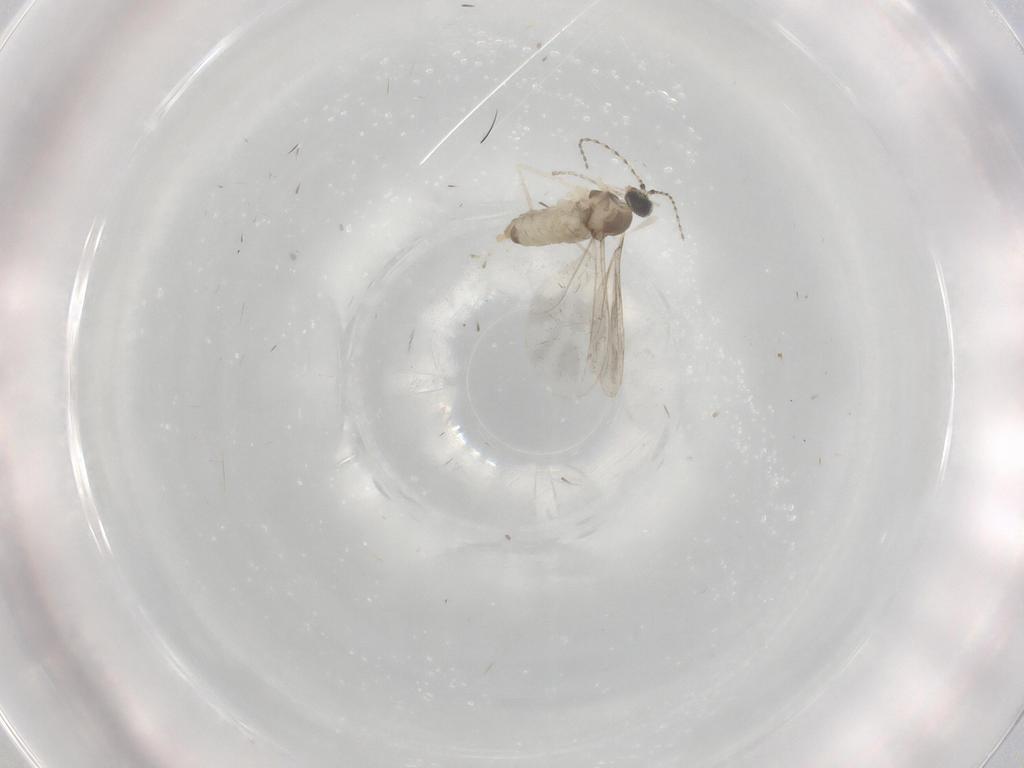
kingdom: Animalia
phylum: Arthropoda
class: Insecta
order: Diptera
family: Cecidomyiidae
